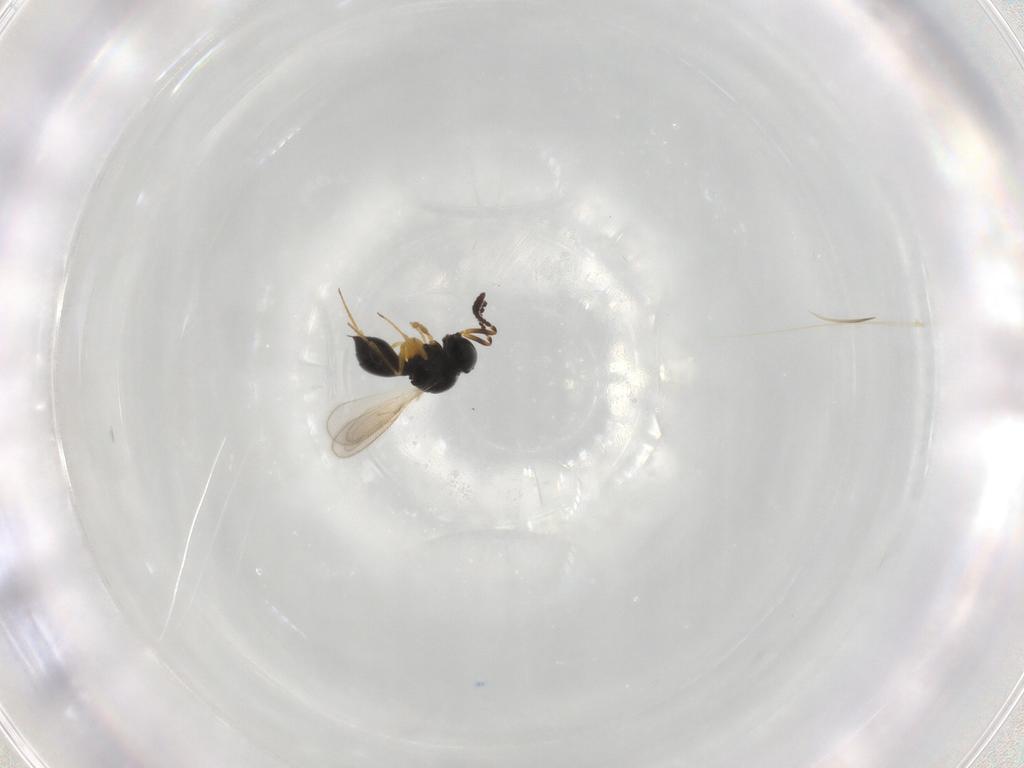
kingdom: Animalia
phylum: Arthropoda
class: Insecta
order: Hymenoptera
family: Scelionidae
